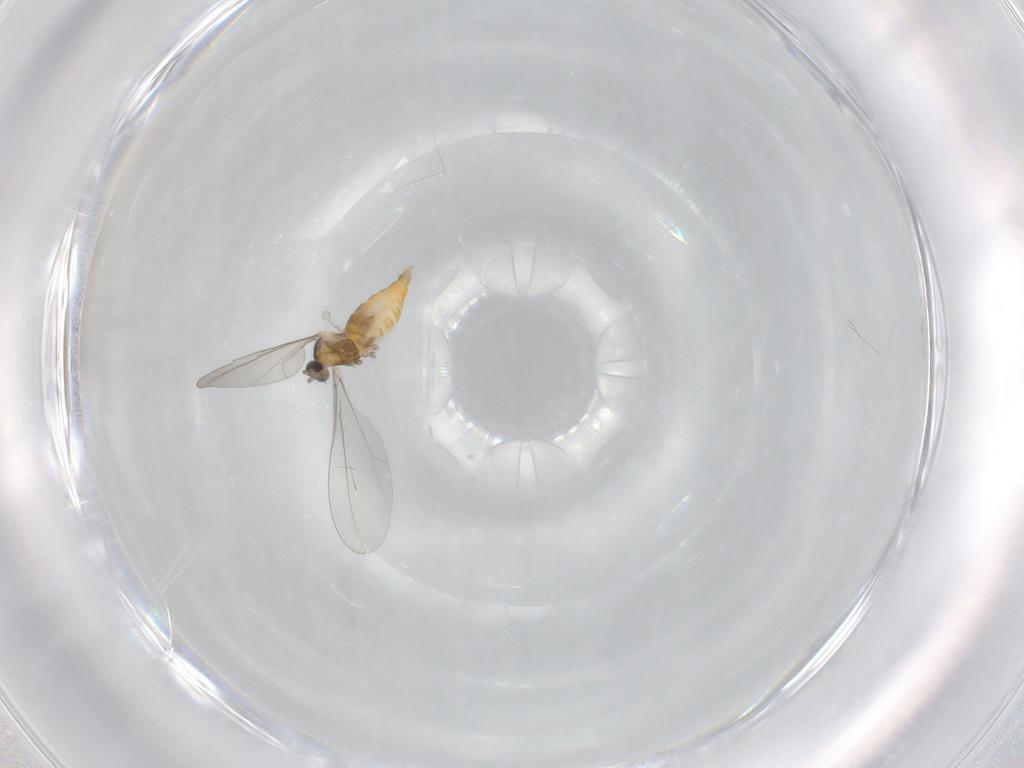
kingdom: Animalia
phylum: Arthropoda
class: Insecta
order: Diptera
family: Cecidomyiidae
